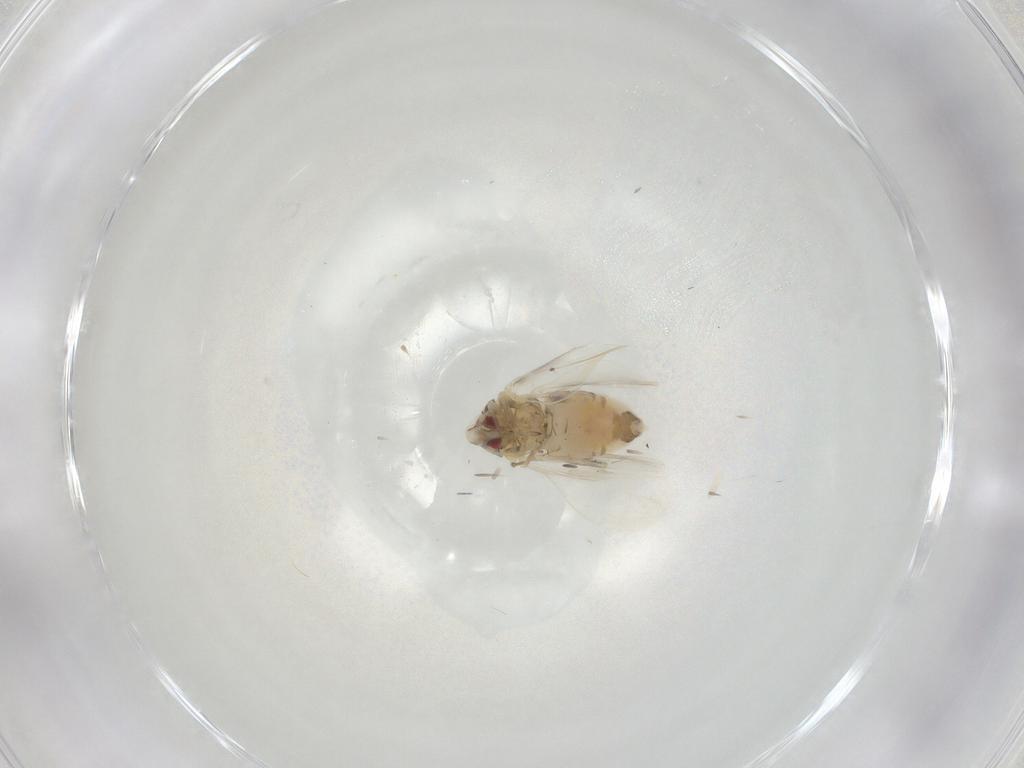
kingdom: Animalia
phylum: Arthropoda
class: Insecta
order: Hemiptera
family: Aleyrodidae
